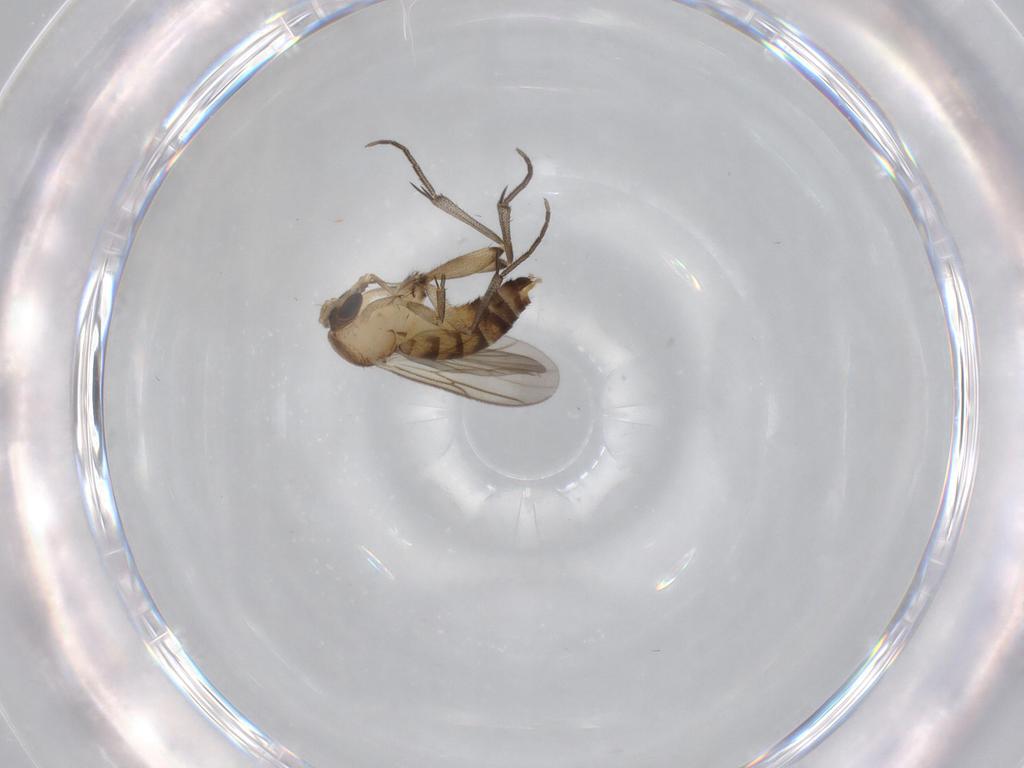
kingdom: Animalia
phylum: Arthropoda
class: Insecta
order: Diptera
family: Mycetophilidae
